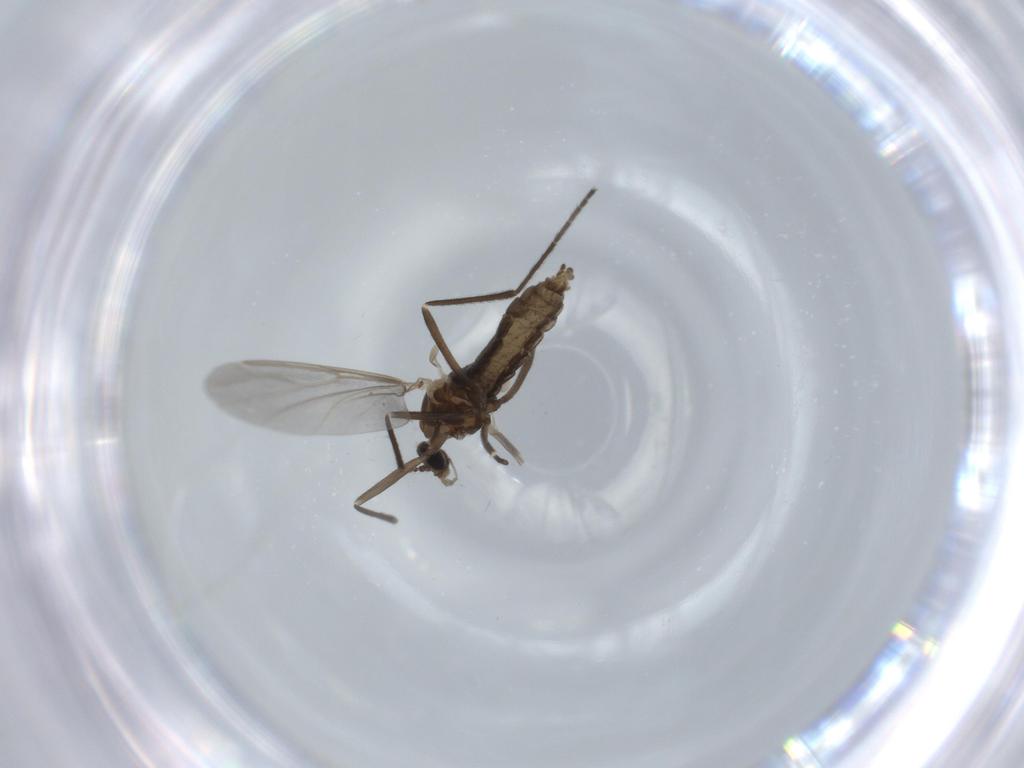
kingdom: Animalia
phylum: Arthropoda
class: Insecta
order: Diptera
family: Cecidomyiidae
